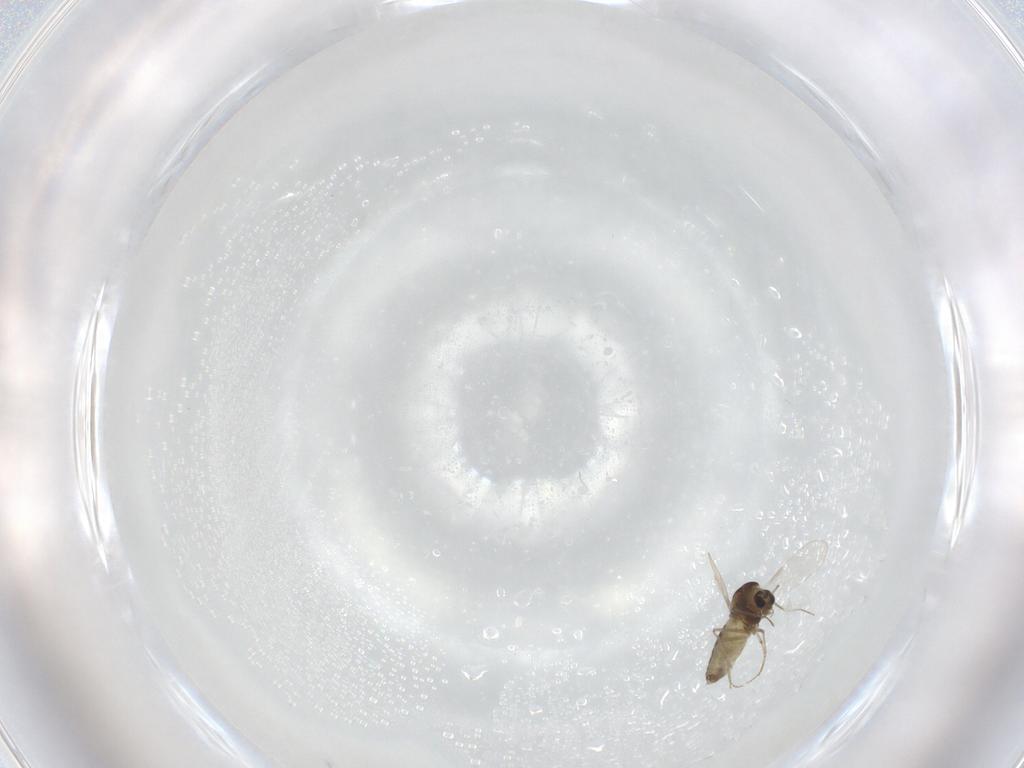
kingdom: Animalia
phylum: Arthropoda
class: Insecta
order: Diptera
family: Chironomidae
